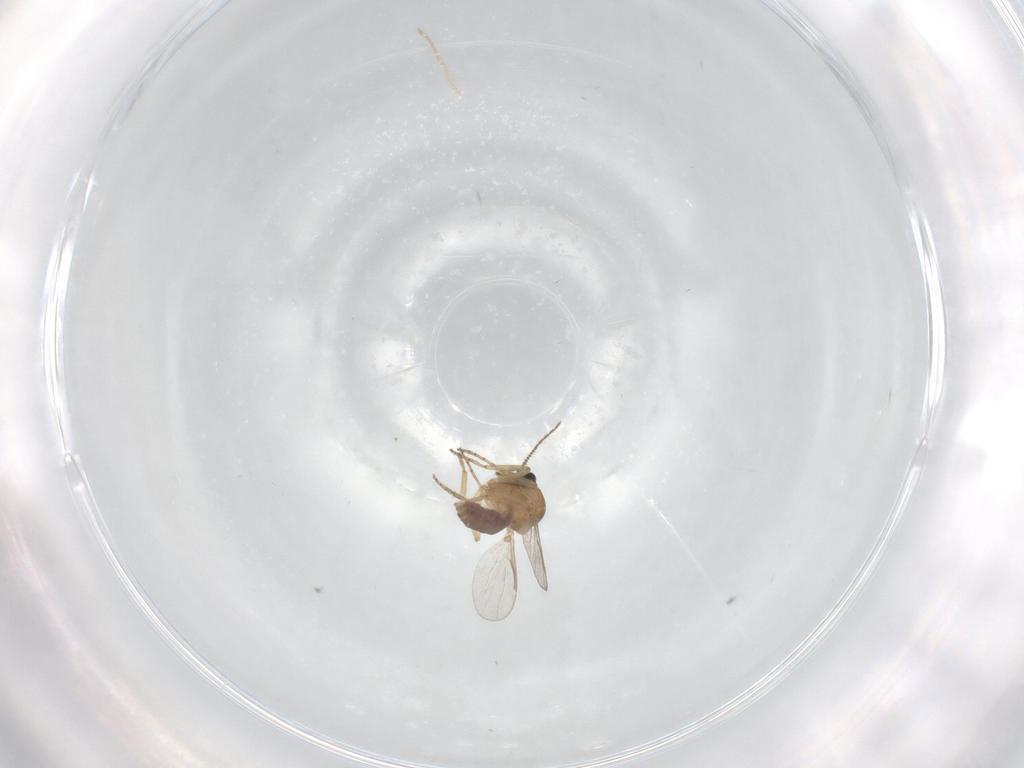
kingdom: Animalia
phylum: Arthropoda
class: Insecta
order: Diptera
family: Ceratopogonidae
